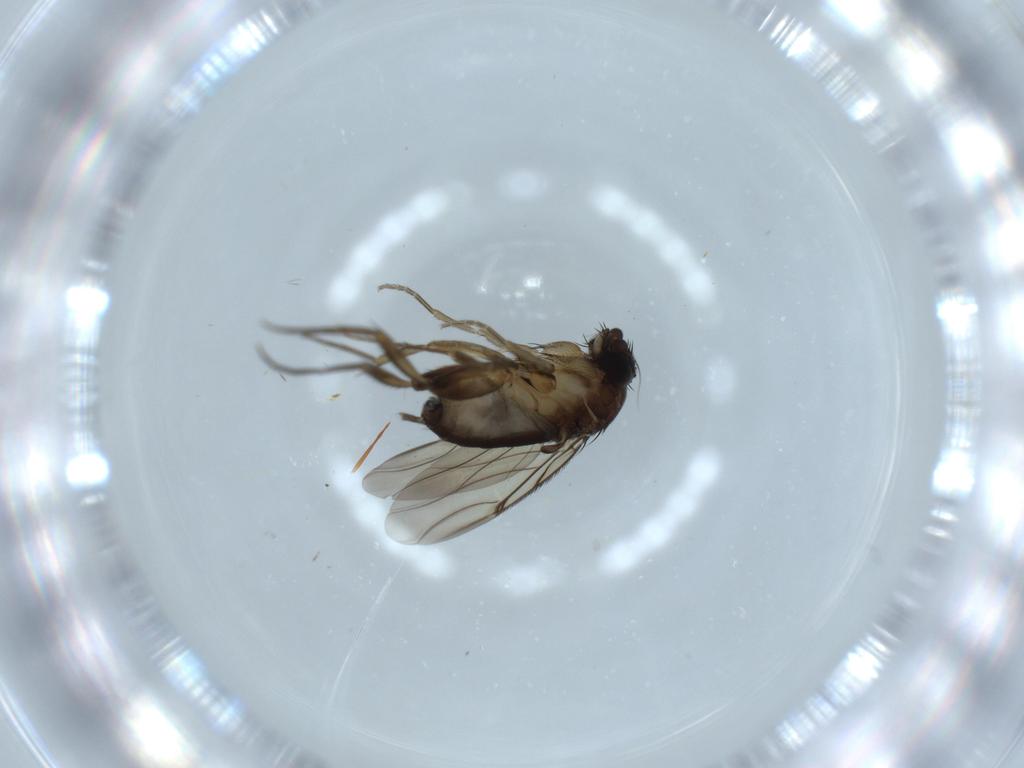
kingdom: Animalia
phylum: Arthropoda
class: Insecta
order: Diptera
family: Phoridae
